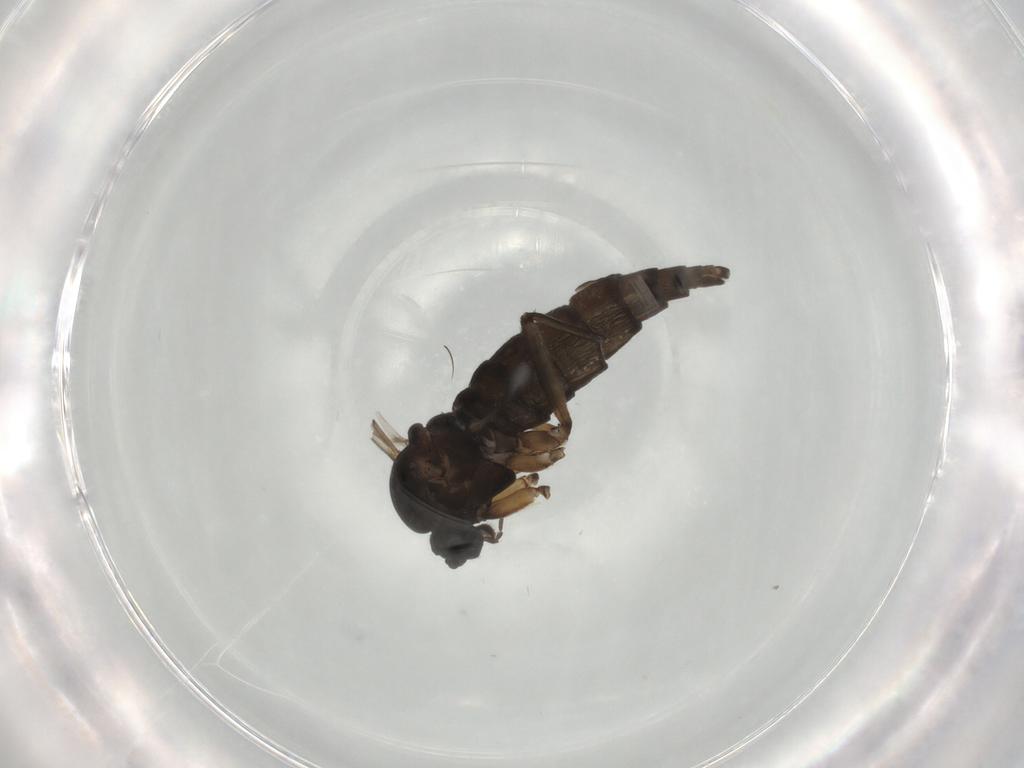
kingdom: Animalia
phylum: Arthropoda
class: Insecta
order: Diptera
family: Sciaridae
